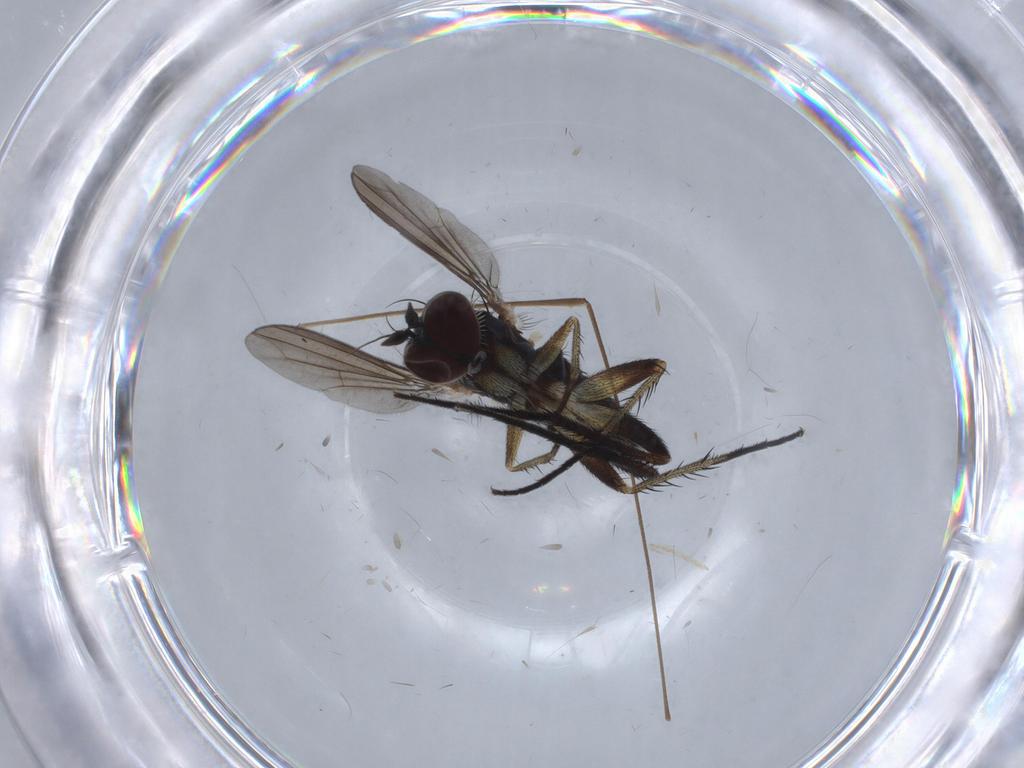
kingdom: Animalia
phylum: Arthropoda
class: Insecta
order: Diptera
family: Limoniidae
